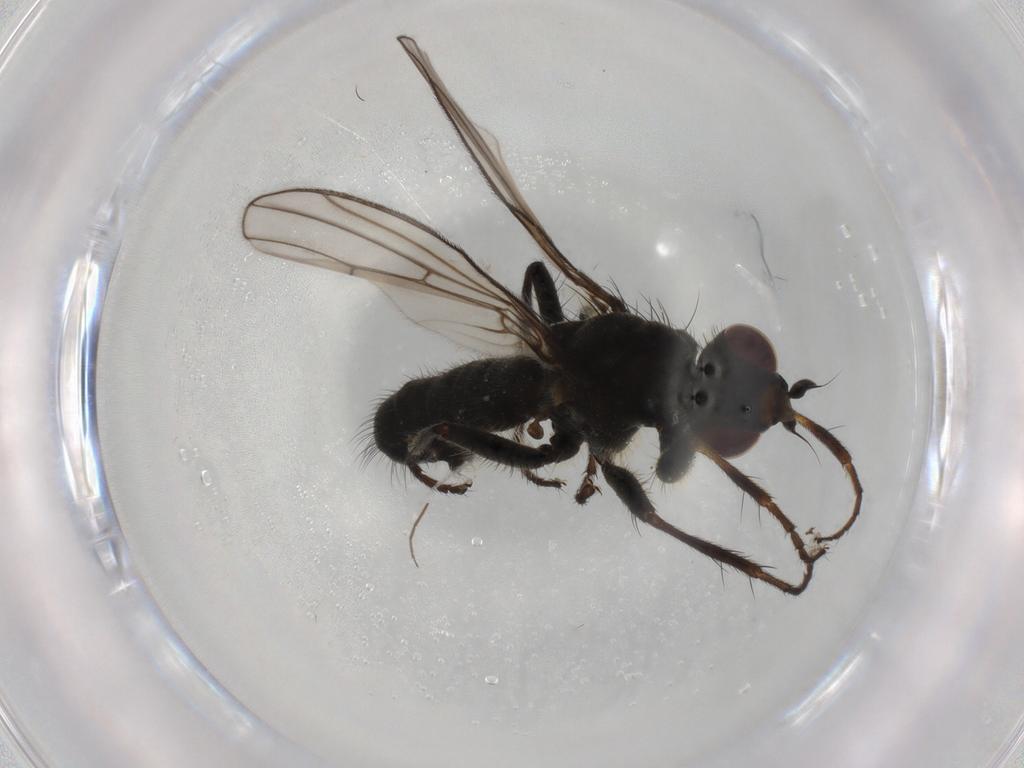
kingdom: Animalia
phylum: Arthropoda
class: Insecta
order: Diptera
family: Scathophagidae
